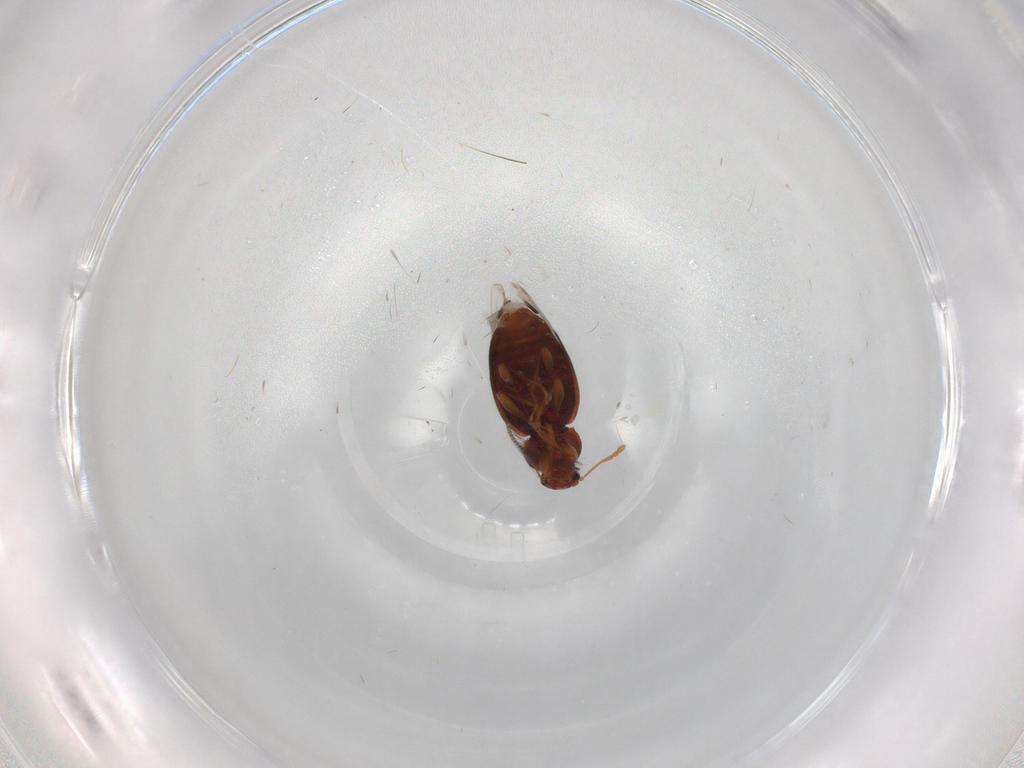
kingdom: Animalia
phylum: Arthropoda
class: Insecta
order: Coleoptera
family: Latridiidae
